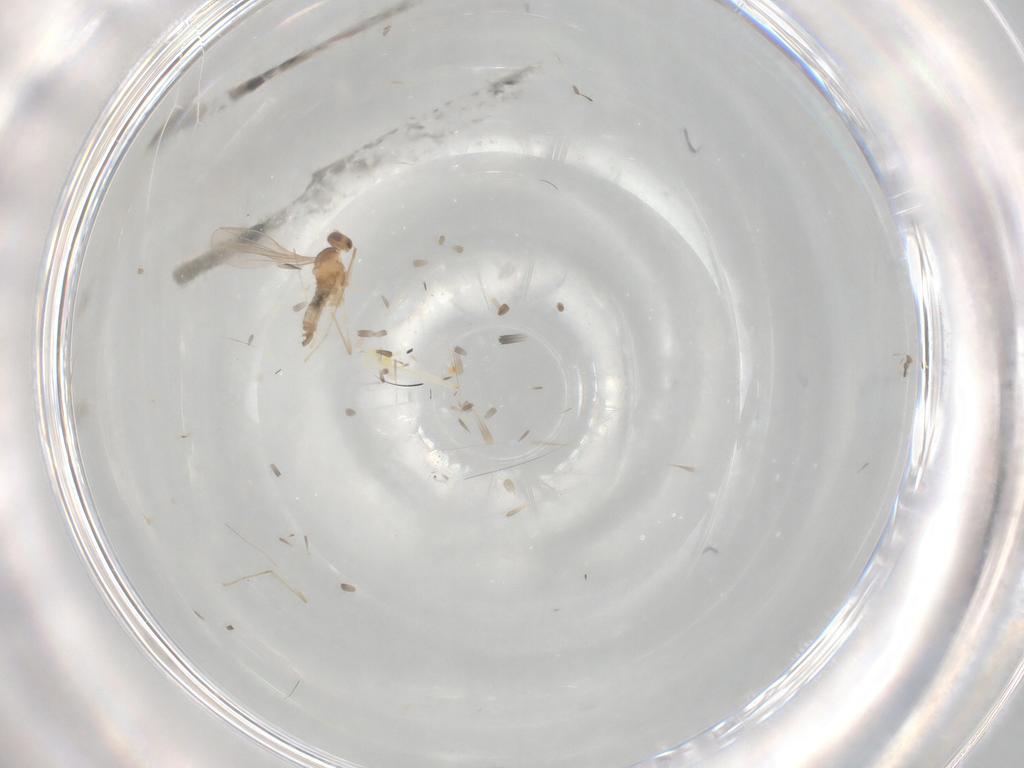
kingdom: Animalia
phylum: Arthropoda
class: Insecta
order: Diptera
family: Cecidomyiidae
